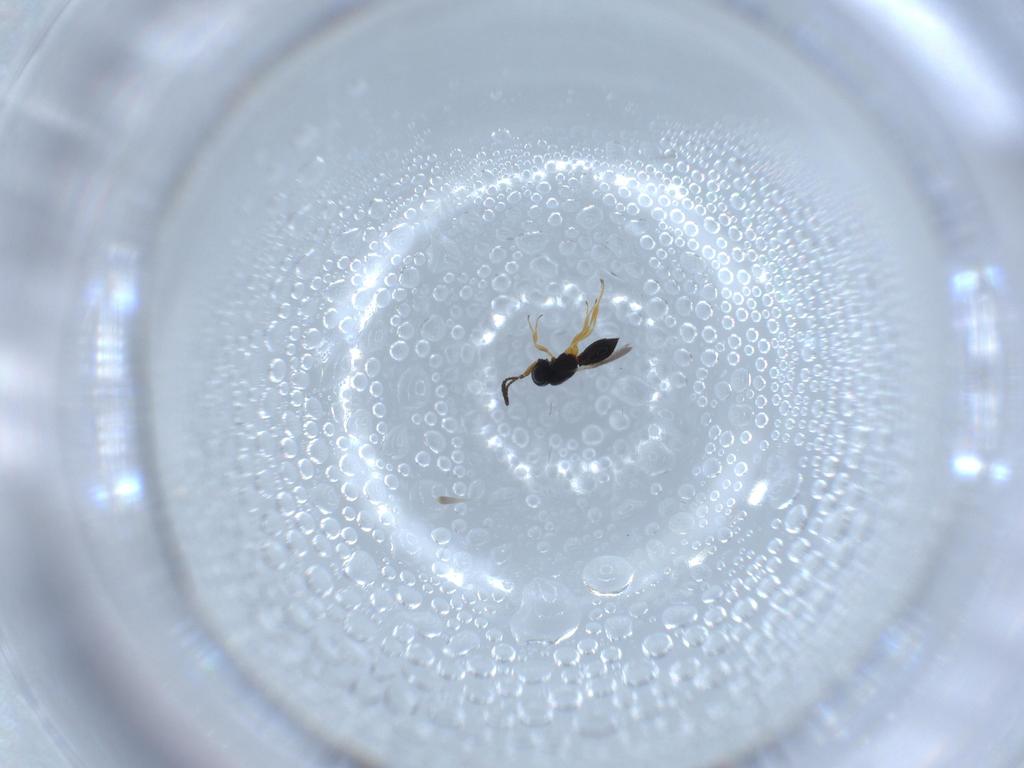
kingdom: Animalia
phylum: Arthropoda
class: Insecta
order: Hymenoptera
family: Scelionidae
